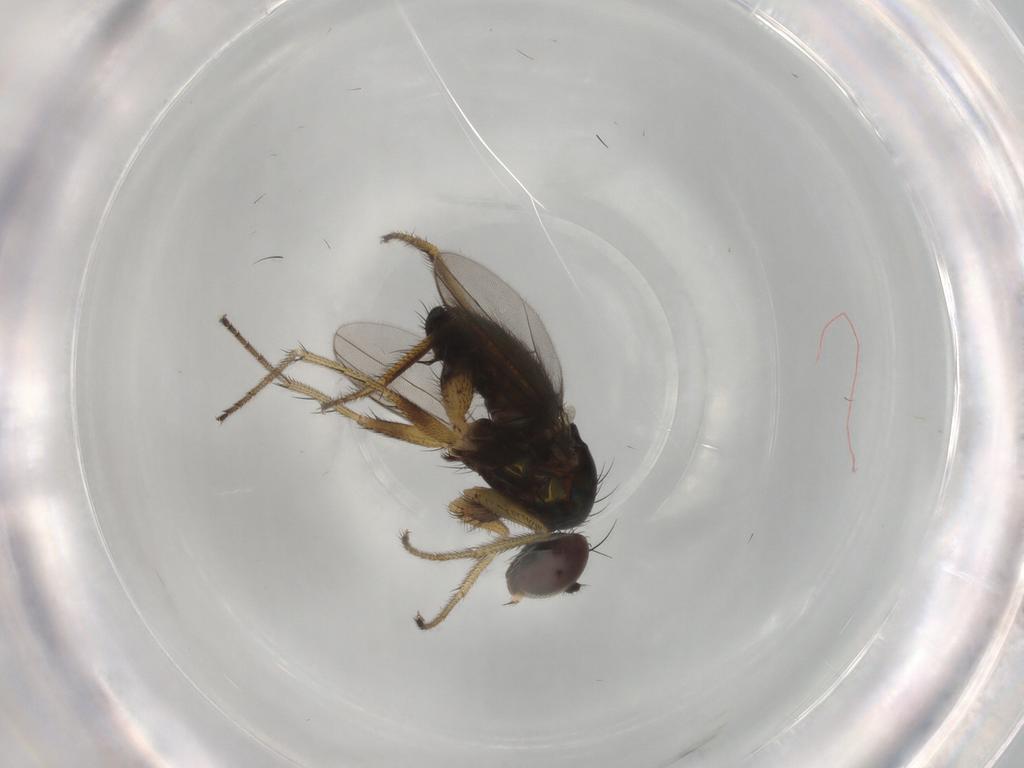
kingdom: Animalia
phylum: Arthropoda
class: Insecta
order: Diptera
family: Dolichopodidae
